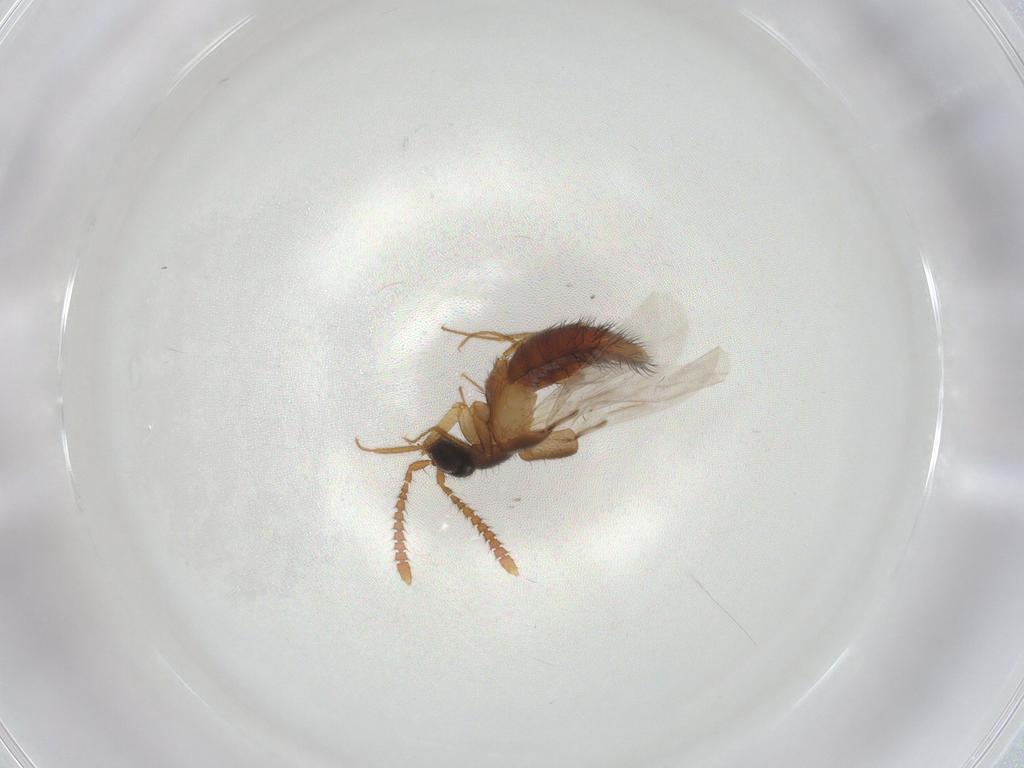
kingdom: Animalia
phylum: Arthropoda
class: Insecta
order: Coleoptera
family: Staphylinidae
